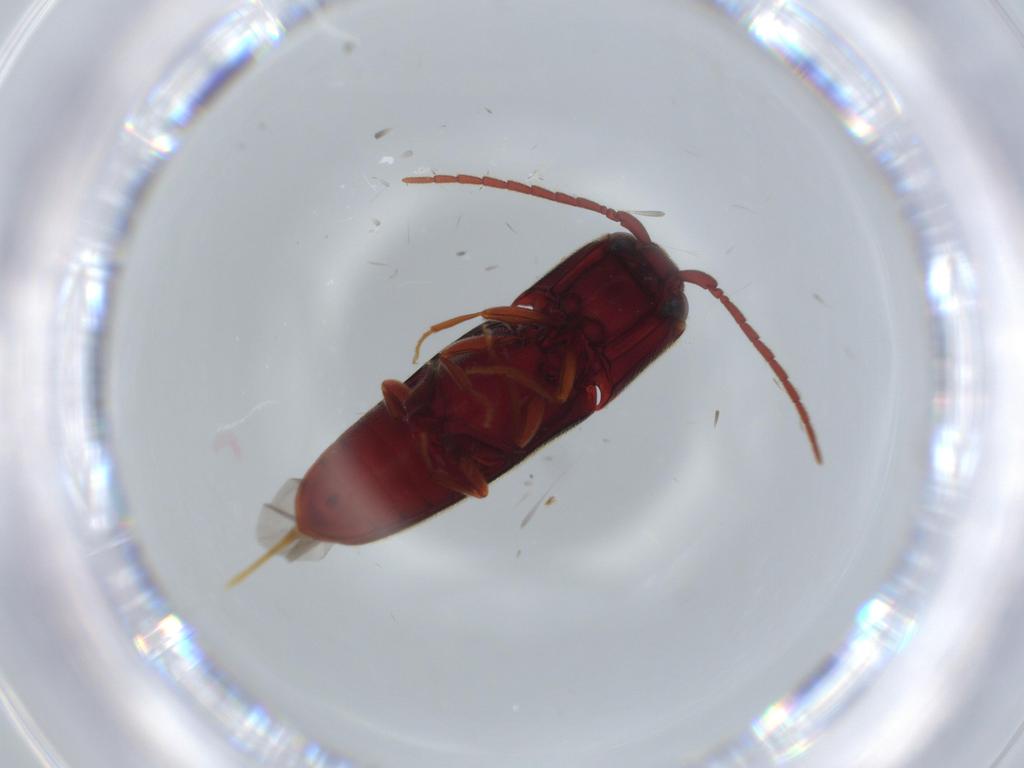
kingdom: Animalia
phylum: Arthropoda
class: Insecta
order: Coleoptera
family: Eucnemidae
